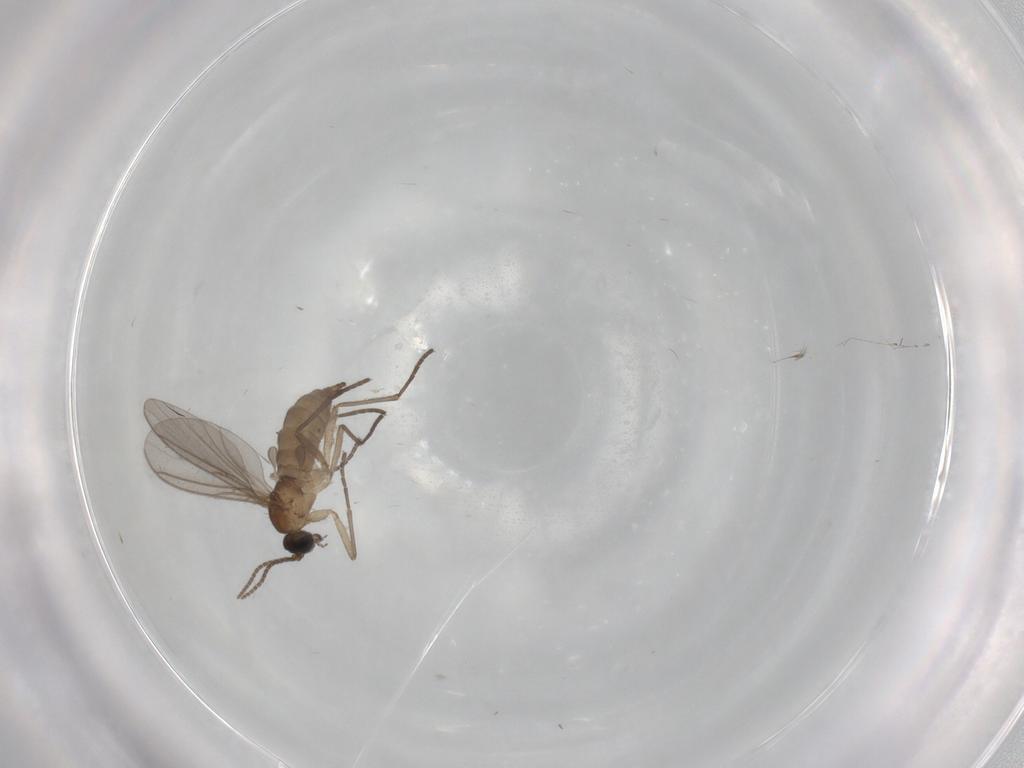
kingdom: Animalia
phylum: Arthropoda
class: Insecta
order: Diptera
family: Sciaridae
